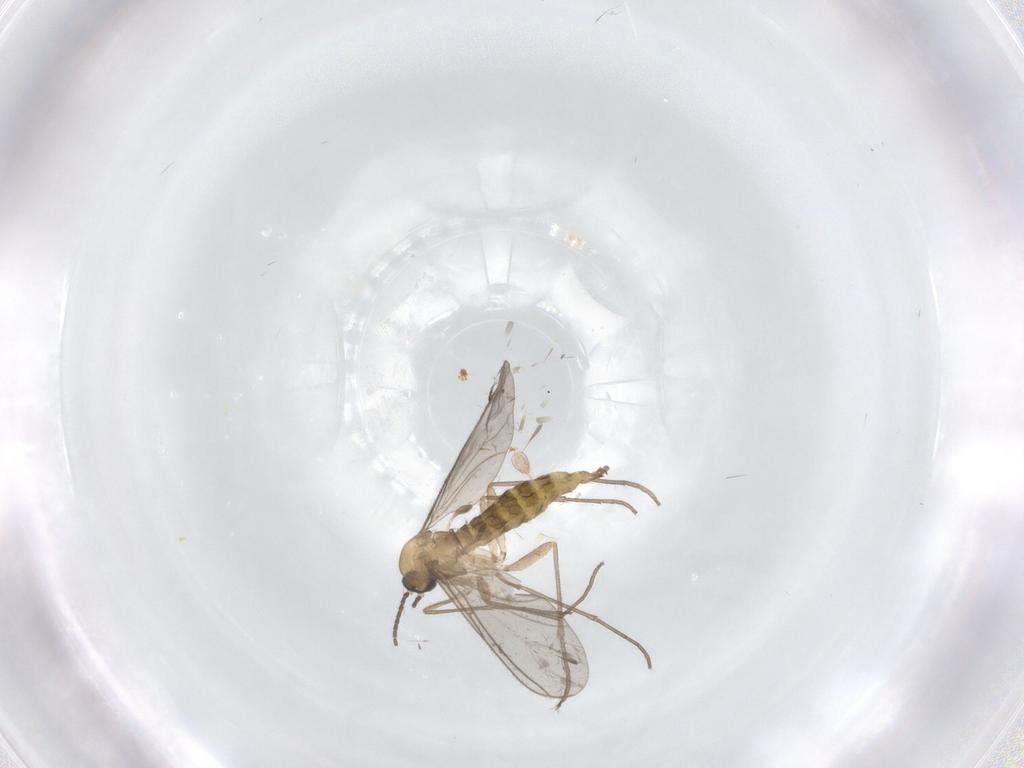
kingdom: Animalia
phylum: Arthropoda
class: Insecta
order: Diptera
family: Sciaridae
